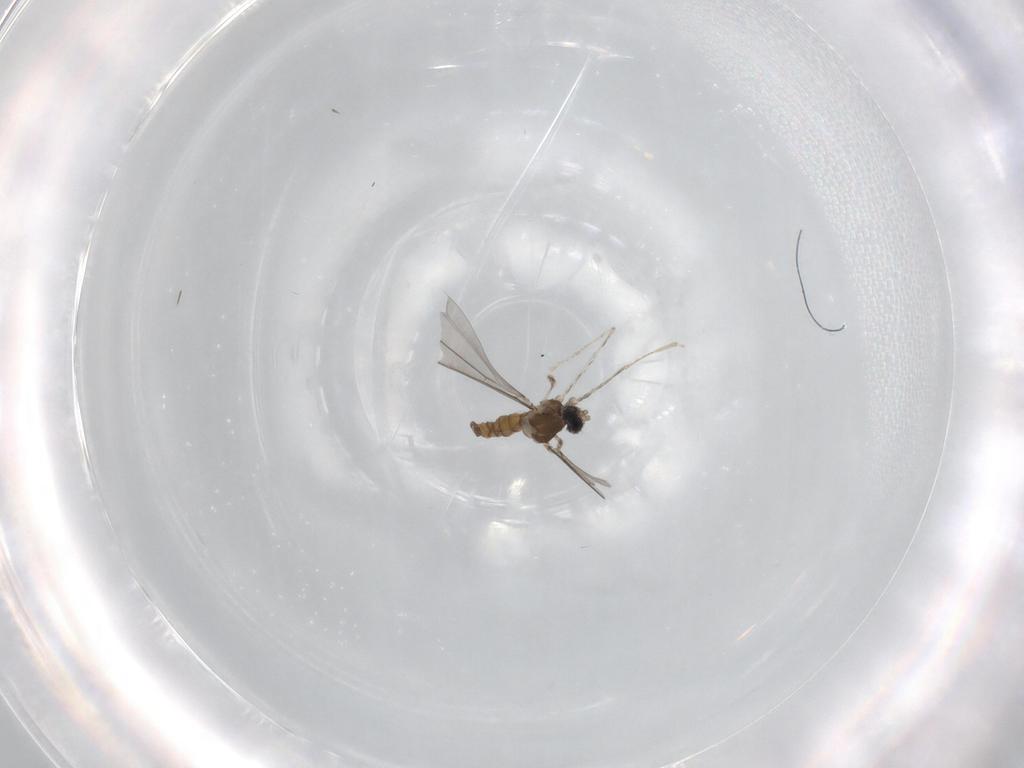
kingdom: Animalia
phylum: Arthropoda
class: Insecta
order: Diptera
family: Cecidomyiidae
